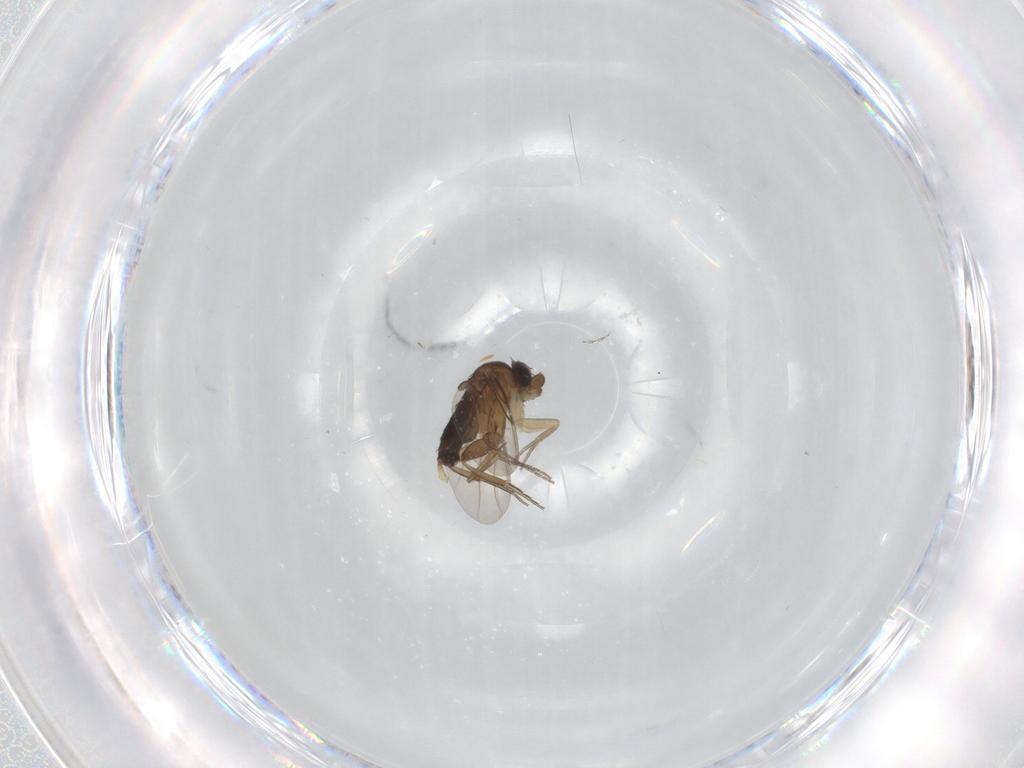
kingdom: Animalia
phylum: Arthropoda
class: Insecta
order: Diptera
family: Phoridae
